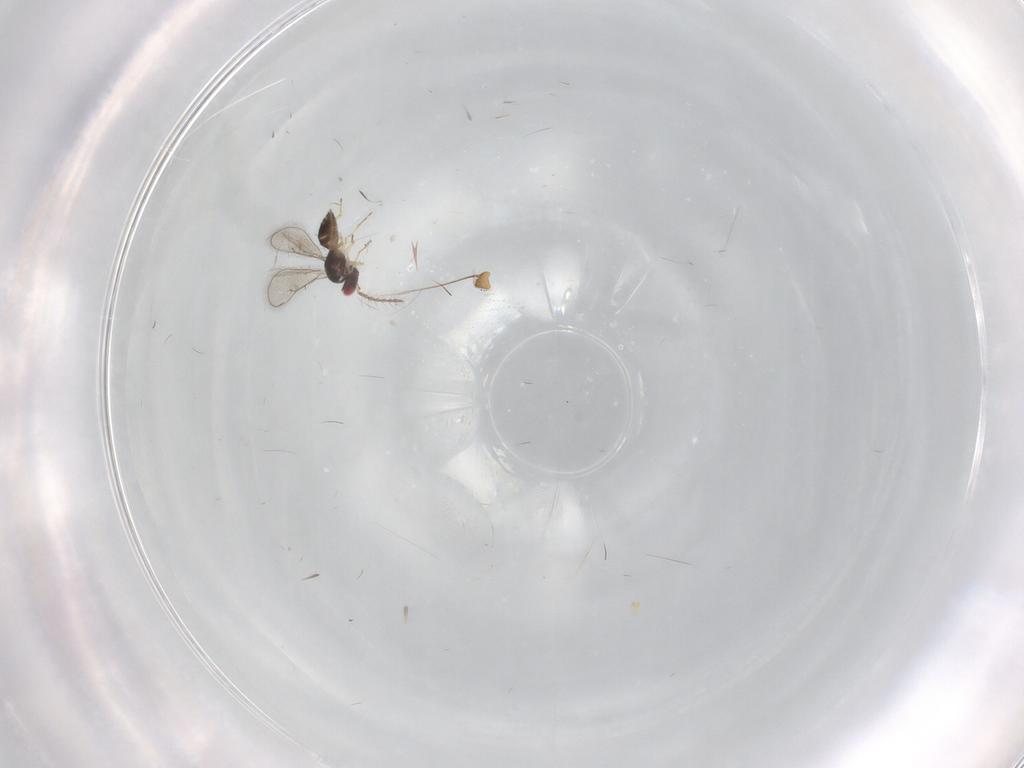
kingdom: Animalia
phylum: Arthropoda
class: Insecta
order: Hymenoptera
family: Eulophidae
